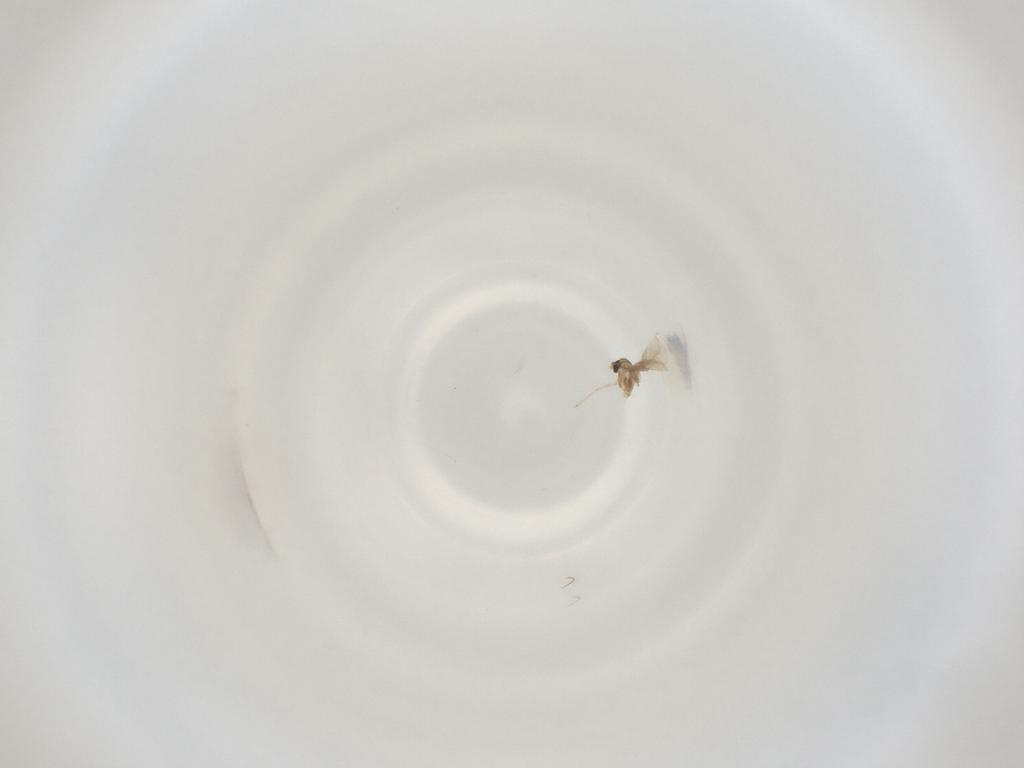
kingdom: Animalia
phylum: Arthropoda
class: Insecta
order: Diptera
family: Cecidomyiidae
